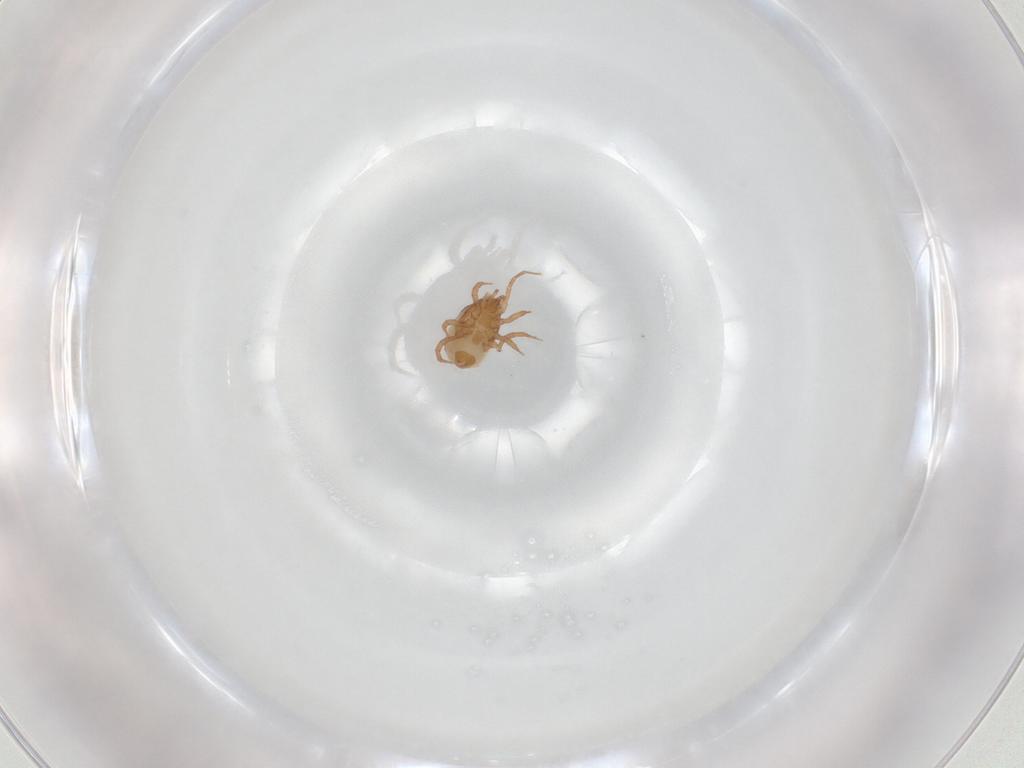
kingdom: Animalia
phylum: Arthropoda
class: Arachnida
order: Mesostigmata
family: Blattisociidae
